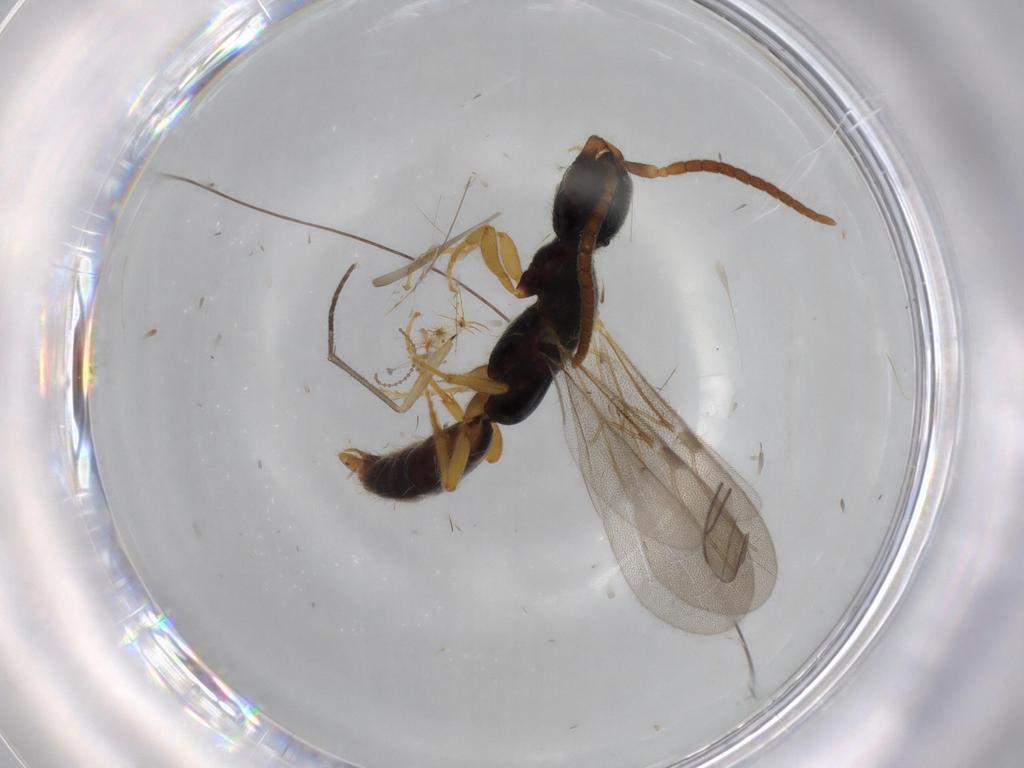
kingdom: Animalia
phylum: Arthropoda
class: Insecta
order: Hymenoptera
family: Bethylidae
